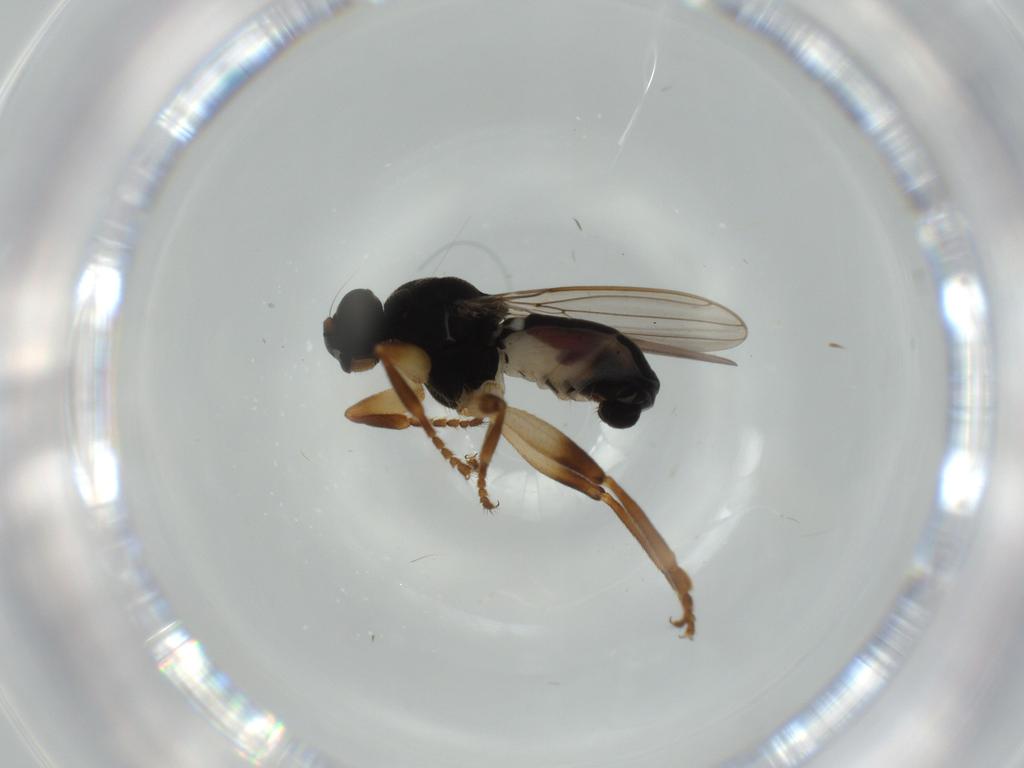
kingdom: Animalia
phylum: Arthropoda
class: Insecta
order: Diptera
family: Sphaeroceridae
